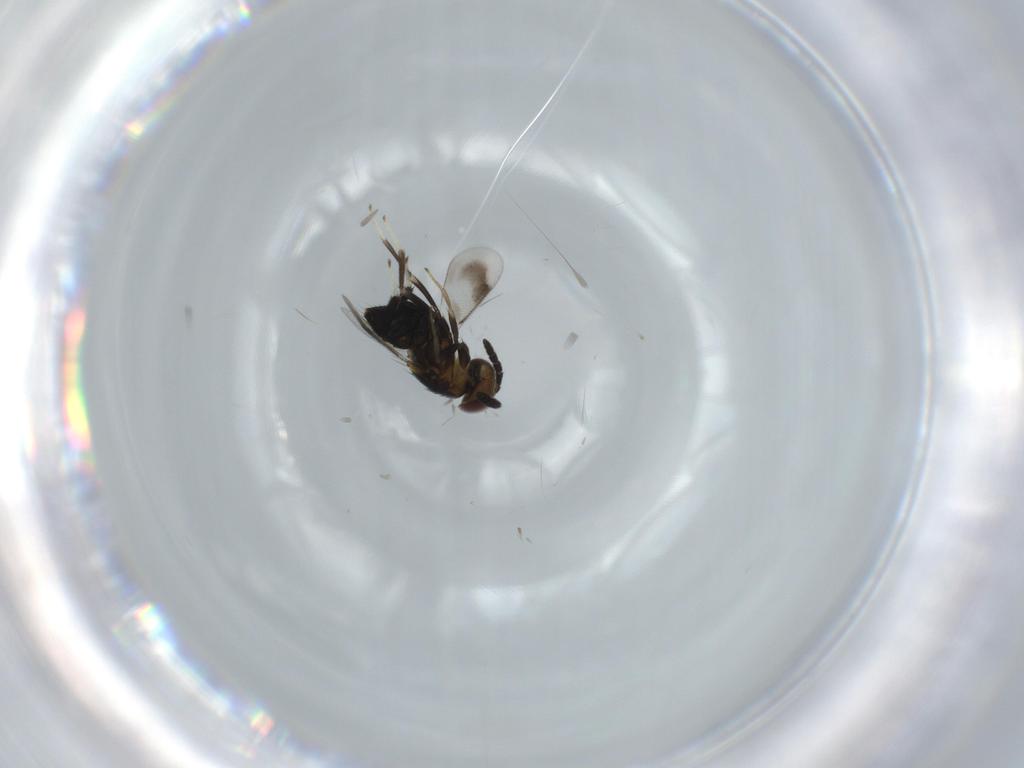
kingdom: Animalia
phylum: Arthropoda
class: Insecta
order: Hymenoptera
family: Aphelinidae
